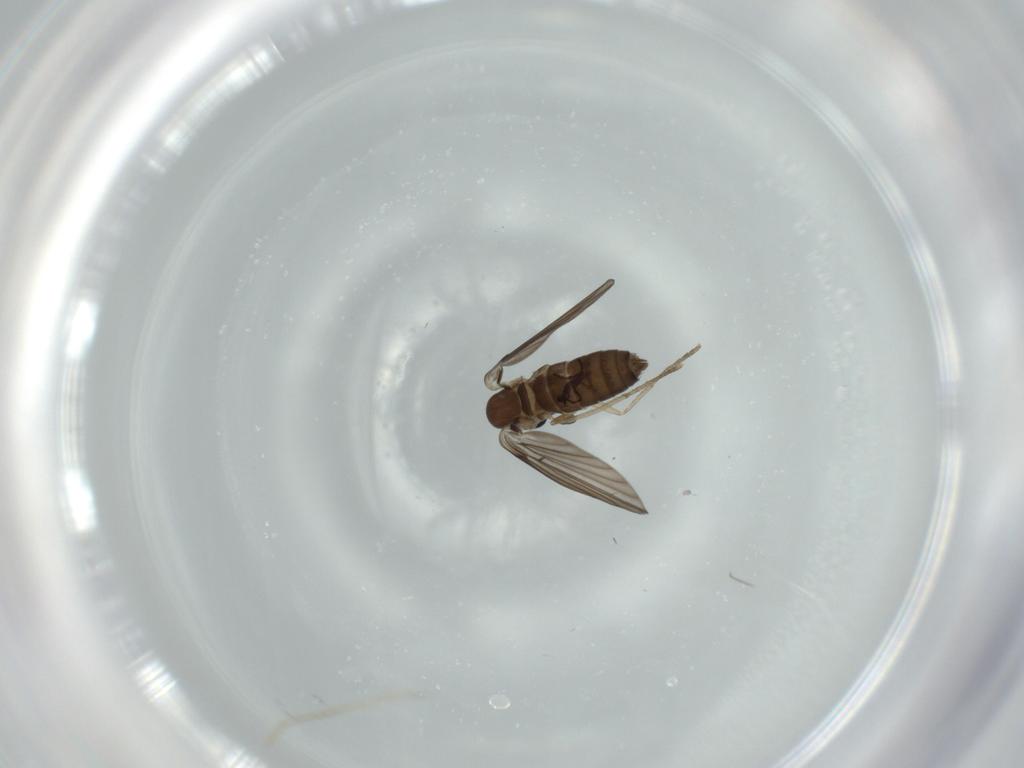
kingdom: Animalia
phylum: Arthropoda
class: Insecta
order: Diptera
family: Psychodidae
